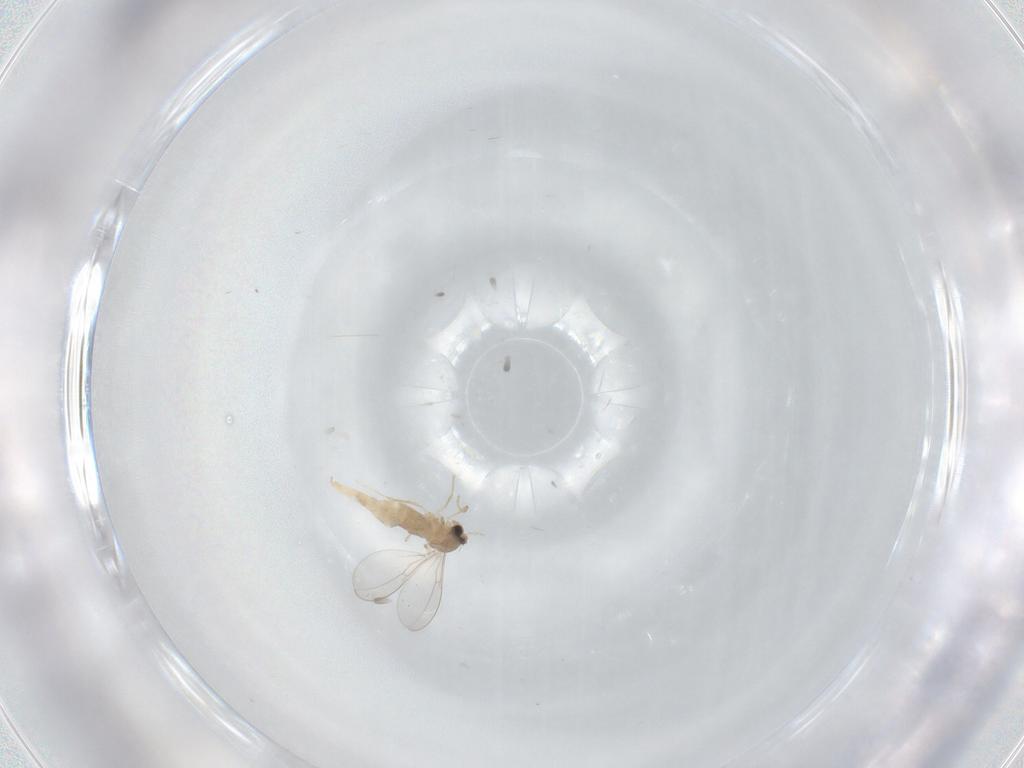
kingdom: Animalia
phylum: Arthropoda
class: Insecta
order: Diptera
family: Cecidomyiidae
